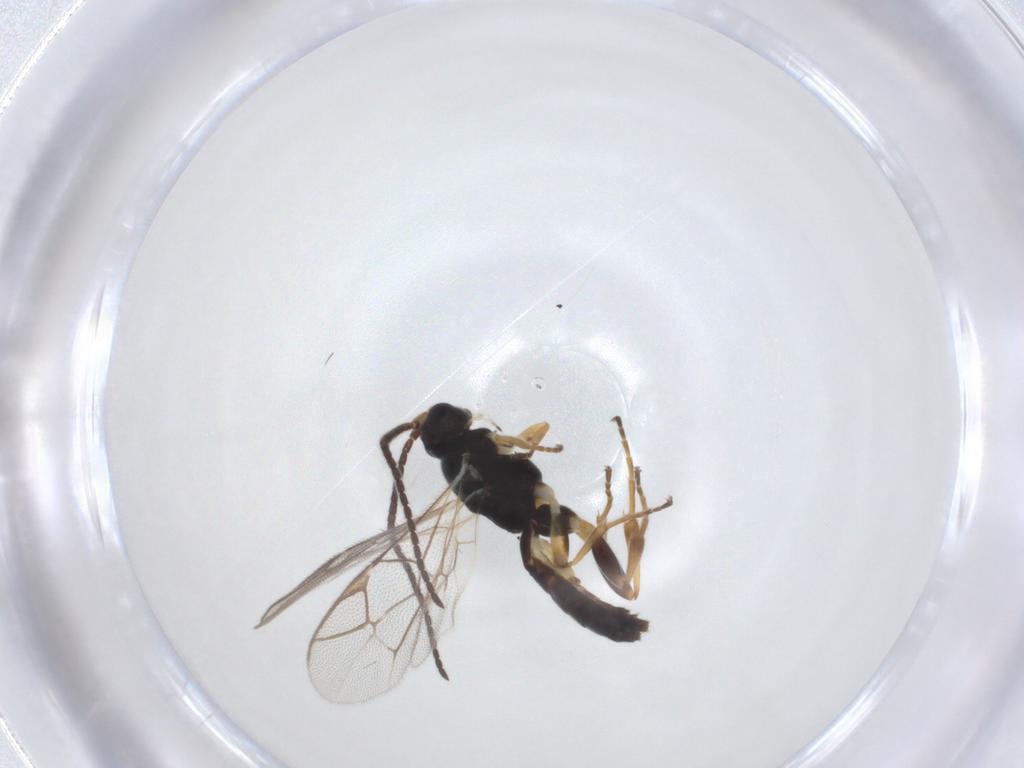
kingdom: Animalia
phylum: Arthropoda
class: Insecta
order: Hymenoptera
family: Ichneumonidae
